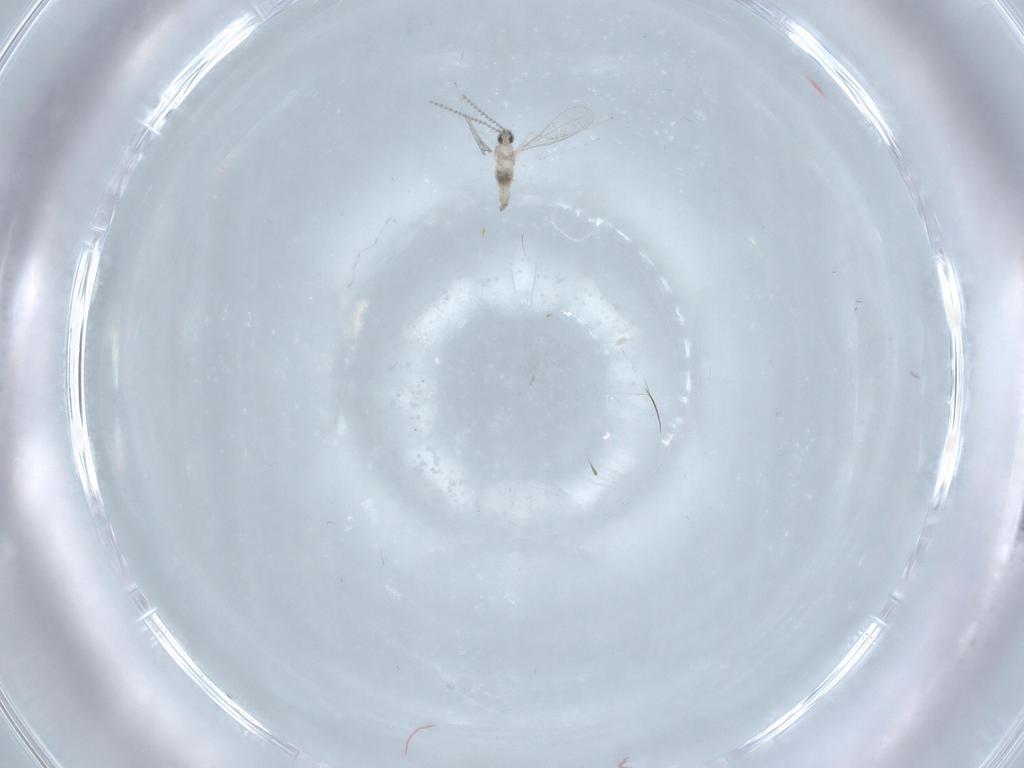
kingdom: Animalia
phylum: Arthropoda
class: Insecta
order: Diptera
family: Cecidomyiidae
